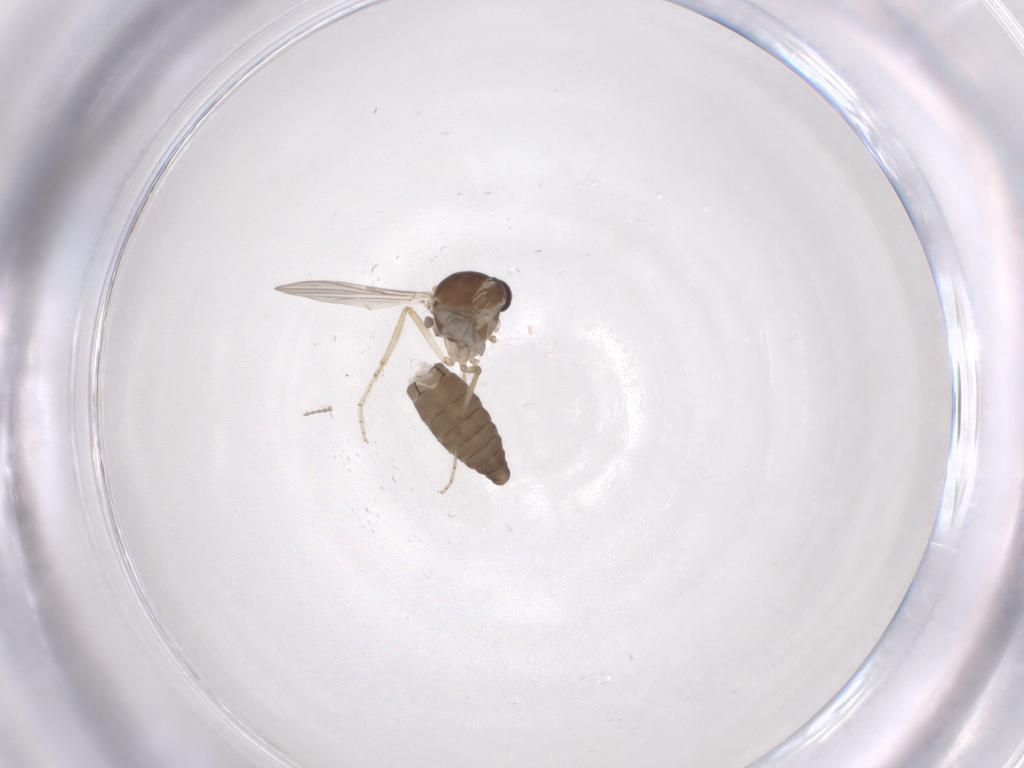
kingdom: Animalia
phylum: Arthropoda
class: Insecta
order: Diptera
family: Ceratopogonidae
